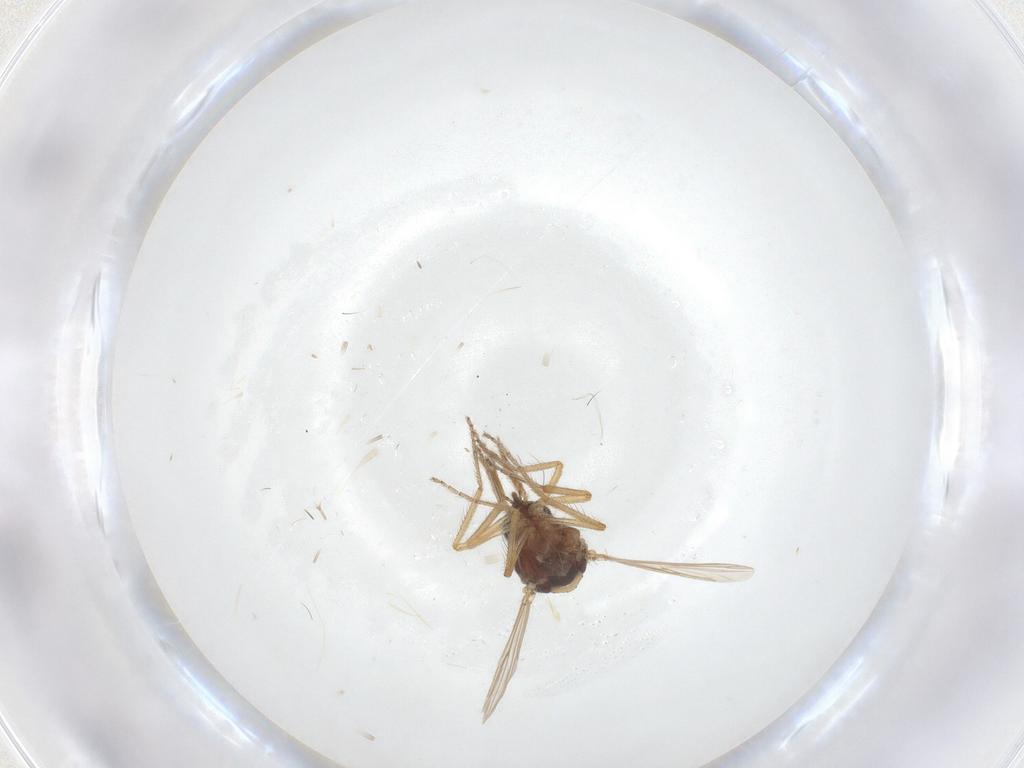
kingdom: Animalia
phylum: Arthropoda
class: Insecta
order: Diptera
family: Ceratopogonidae
